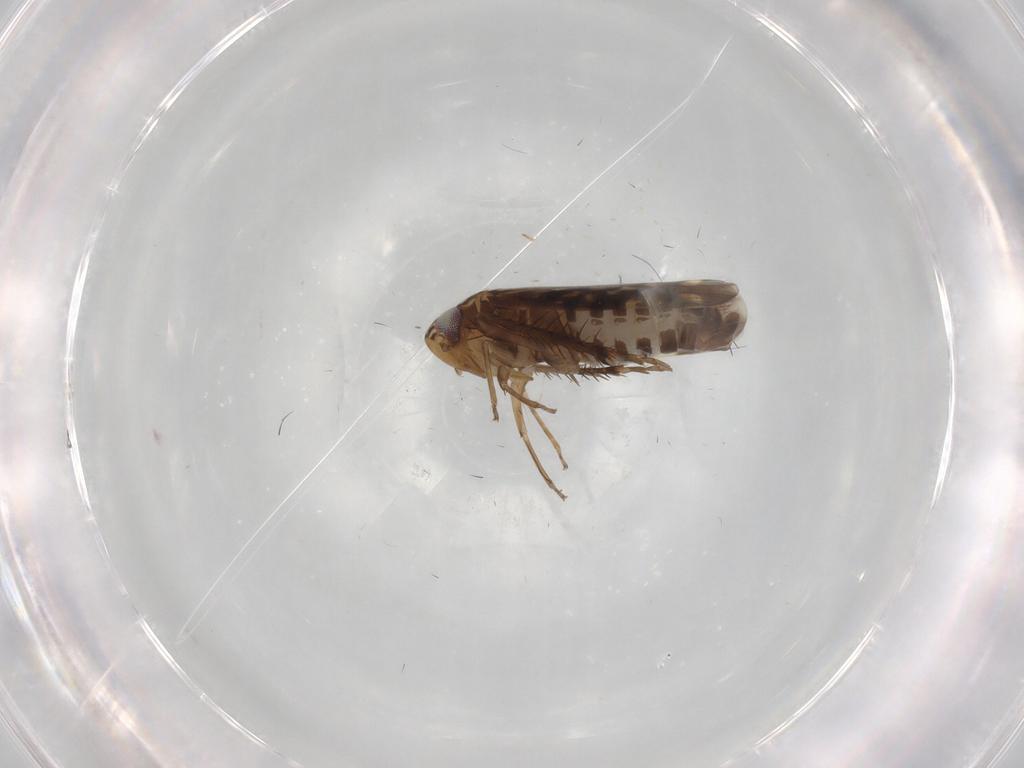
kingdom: Animalia
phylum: Arthropoda
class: Insecta
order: Hemiptera
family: Cicadellidae
